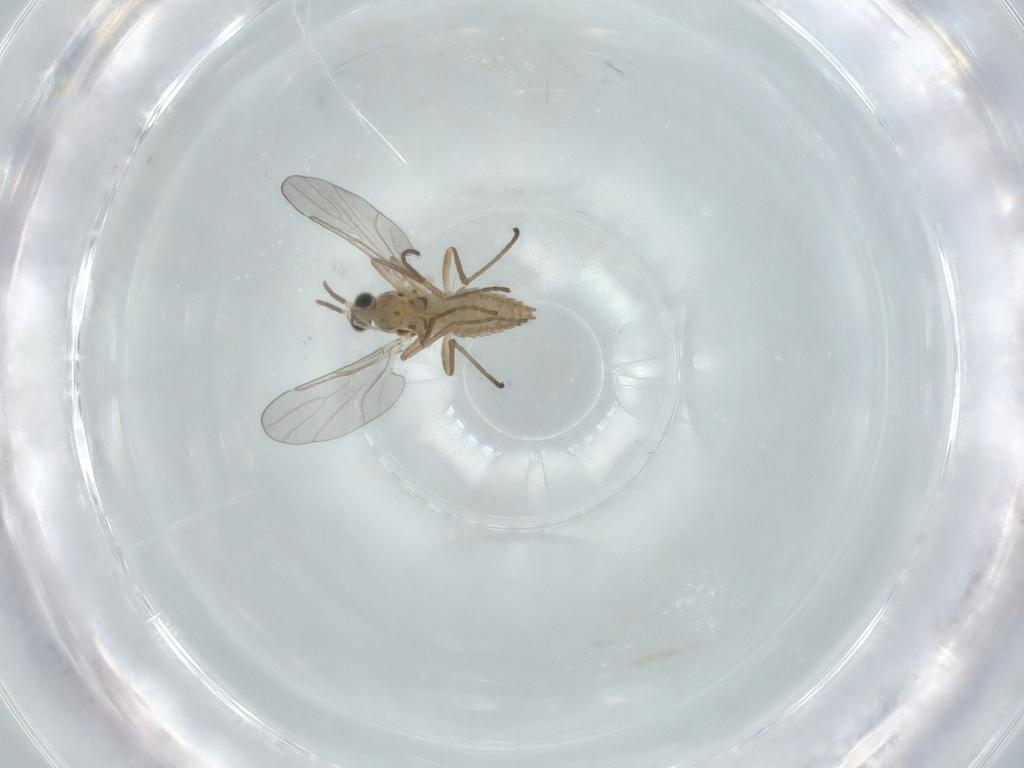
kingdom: Animalia
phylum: Arthropoda
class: Insecta
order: Diptera
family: Cecidomyiidae
